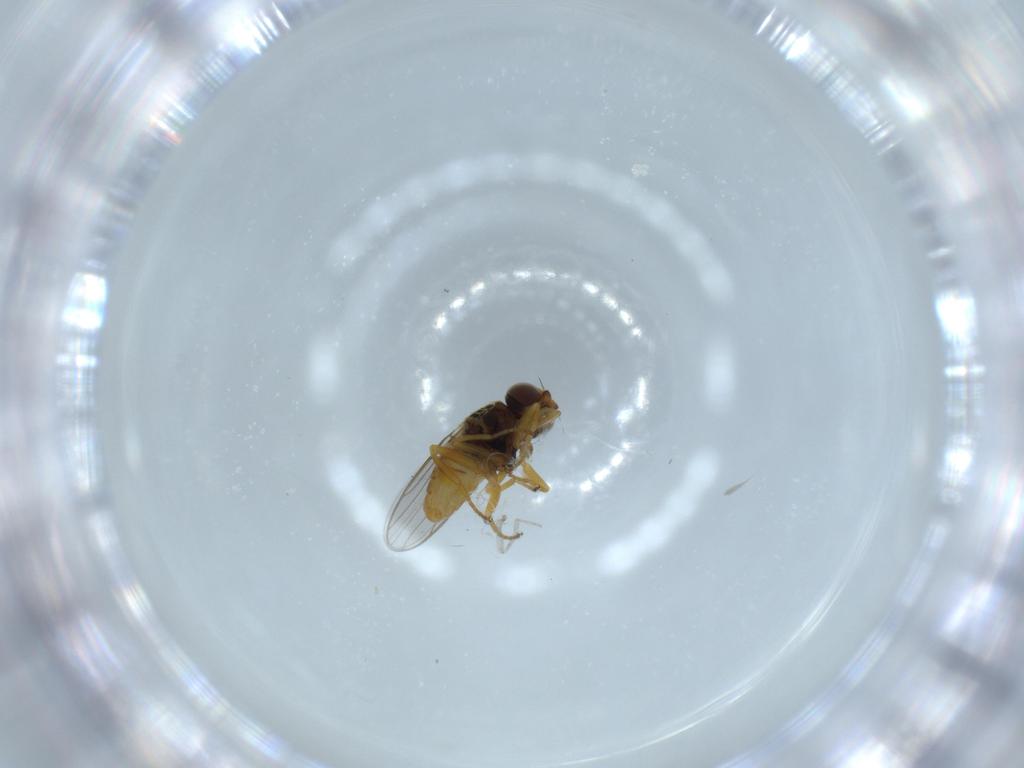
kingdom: Animalia
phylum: Arthropoda
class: Insecta
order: Diptera
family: Chloropidae
